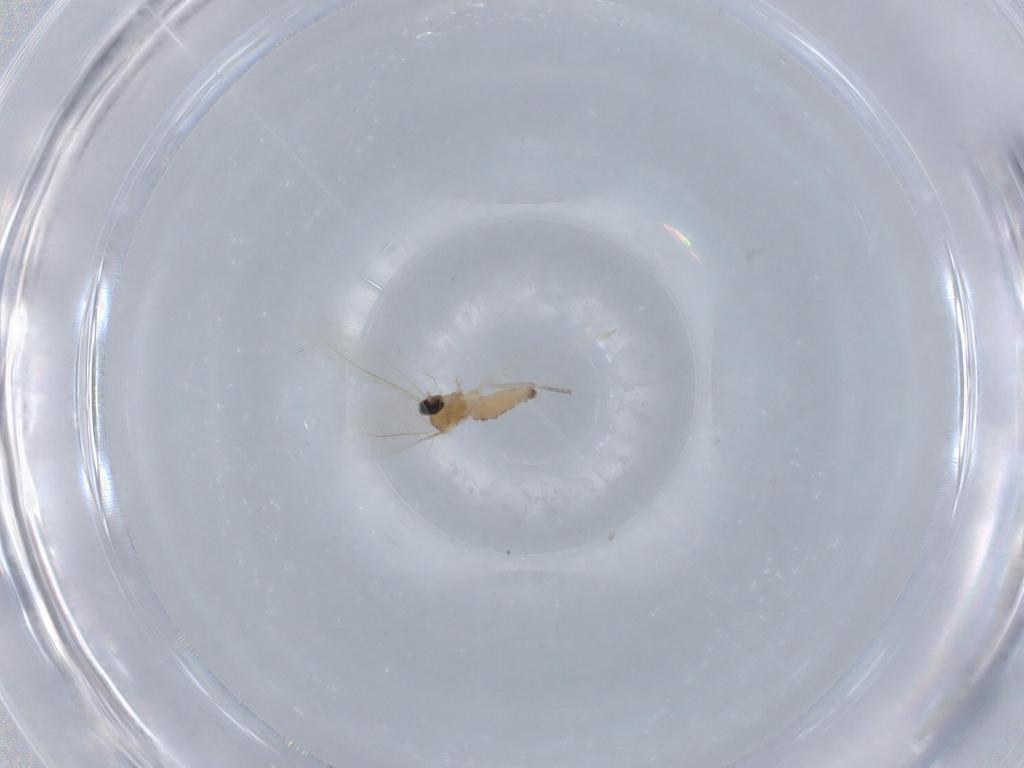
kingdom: Animalia
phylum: Arthropoda
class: Insecta
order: Diptera
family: Cecidomyiidae
